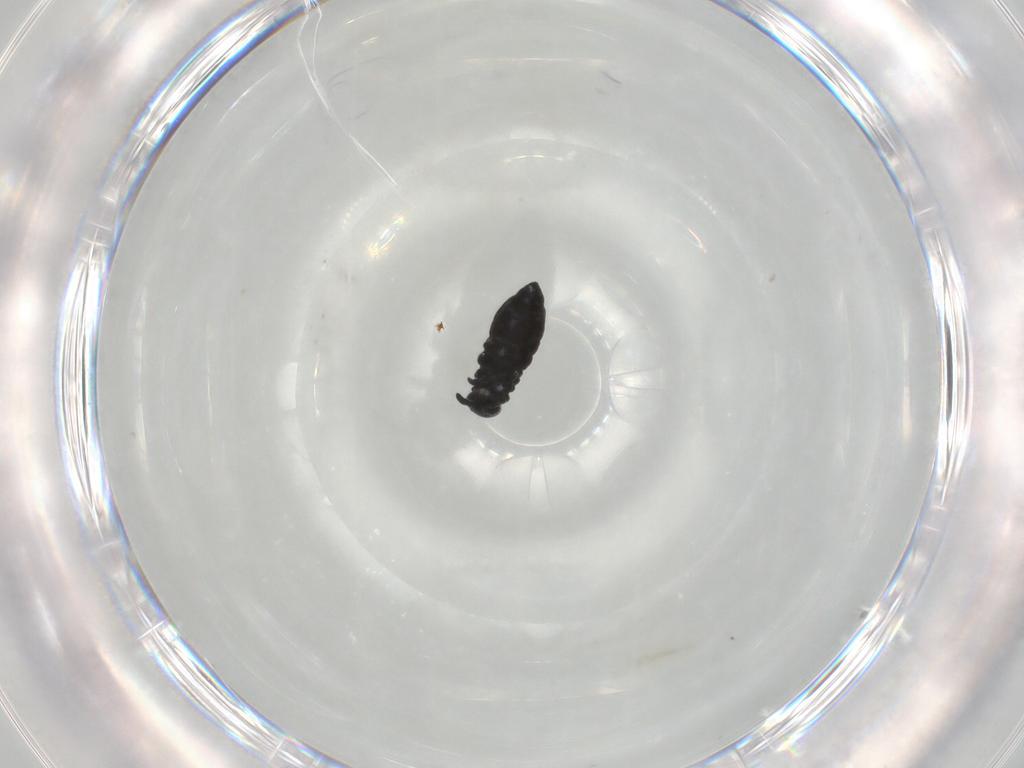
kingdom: Animalia
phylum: Arthropoda
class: Collembola
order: Poduromorpha
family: Hypogastruridae
